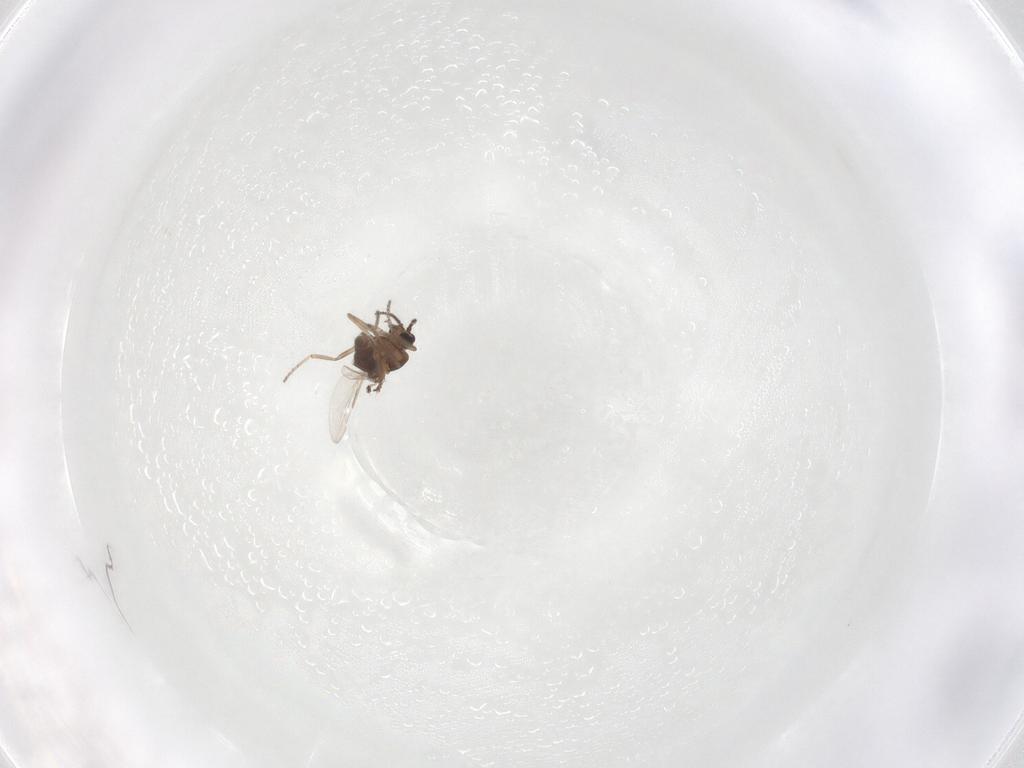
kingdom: Animalia
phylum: Arthropoda
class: Insecta
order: Diptera
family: Ceratopogonidae
